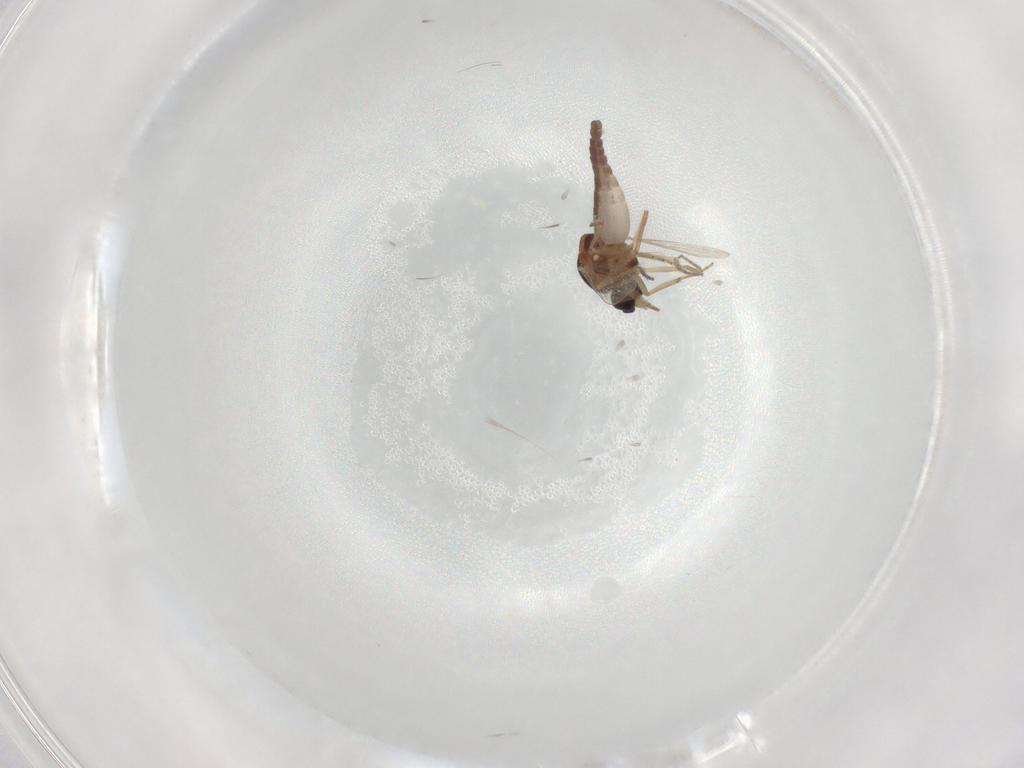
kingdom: Animalia
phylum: Arthropoda
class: Insecta
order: Diptera
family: Ceratopogonidae
